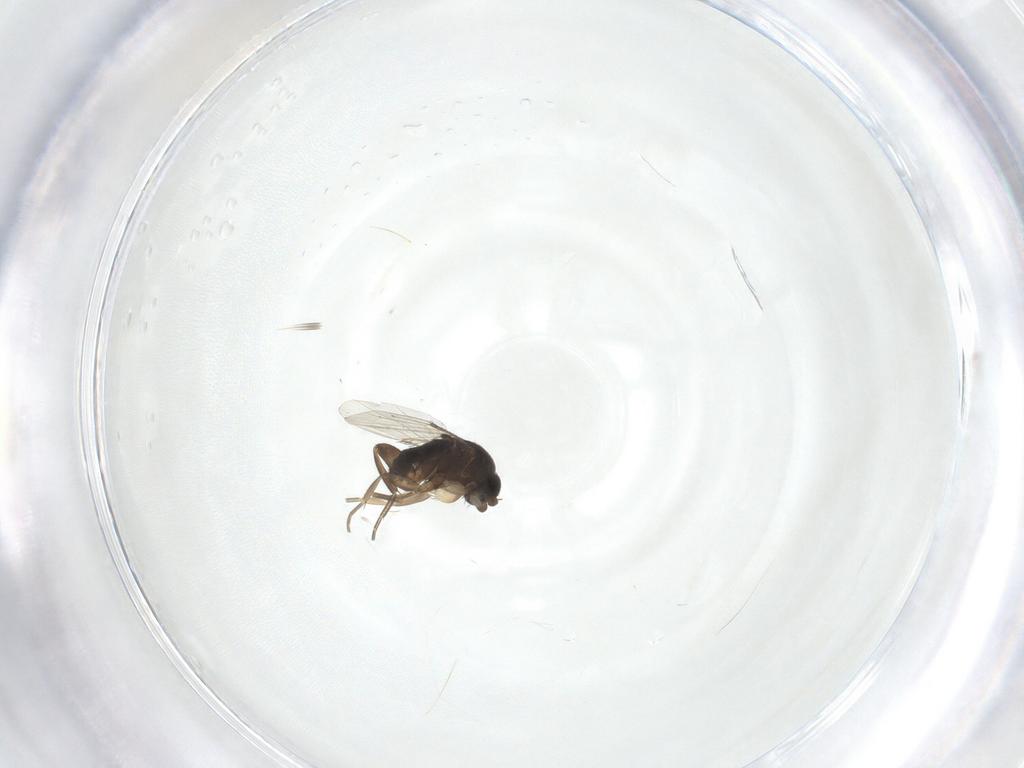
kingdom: Animalia
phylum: Arthropoda
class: Insecta
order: Diptera
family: Phoridae
